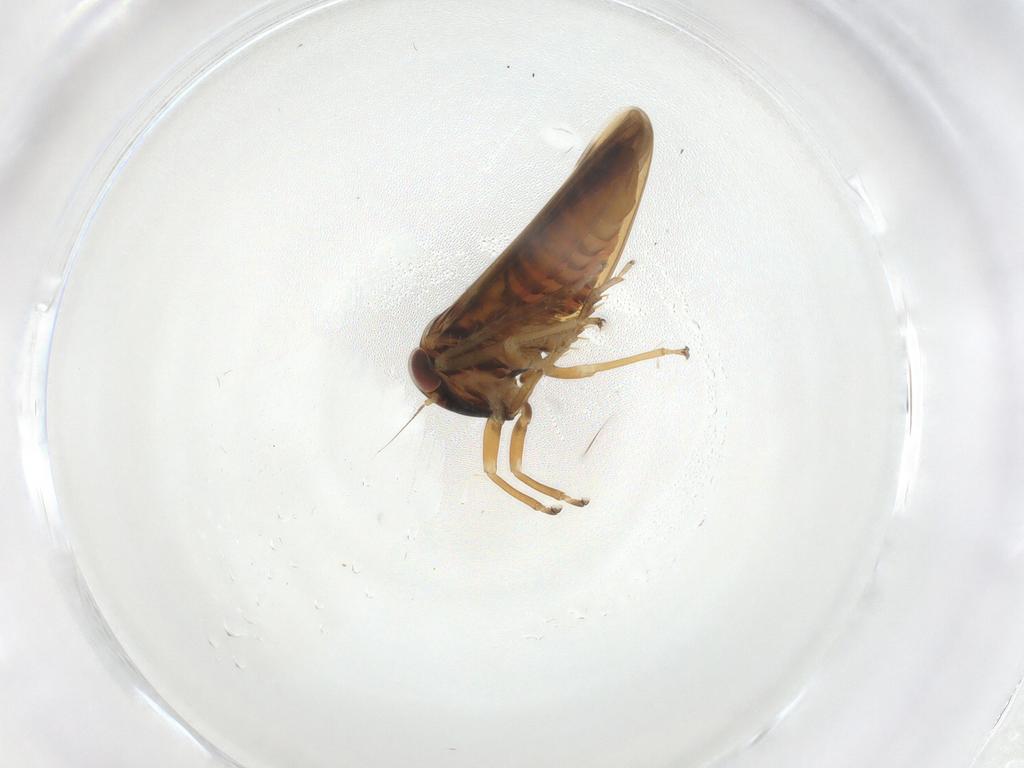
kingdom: Animalia
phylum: Arthropoda
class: Insecta
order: Hemiptera
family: Cicadellidae
